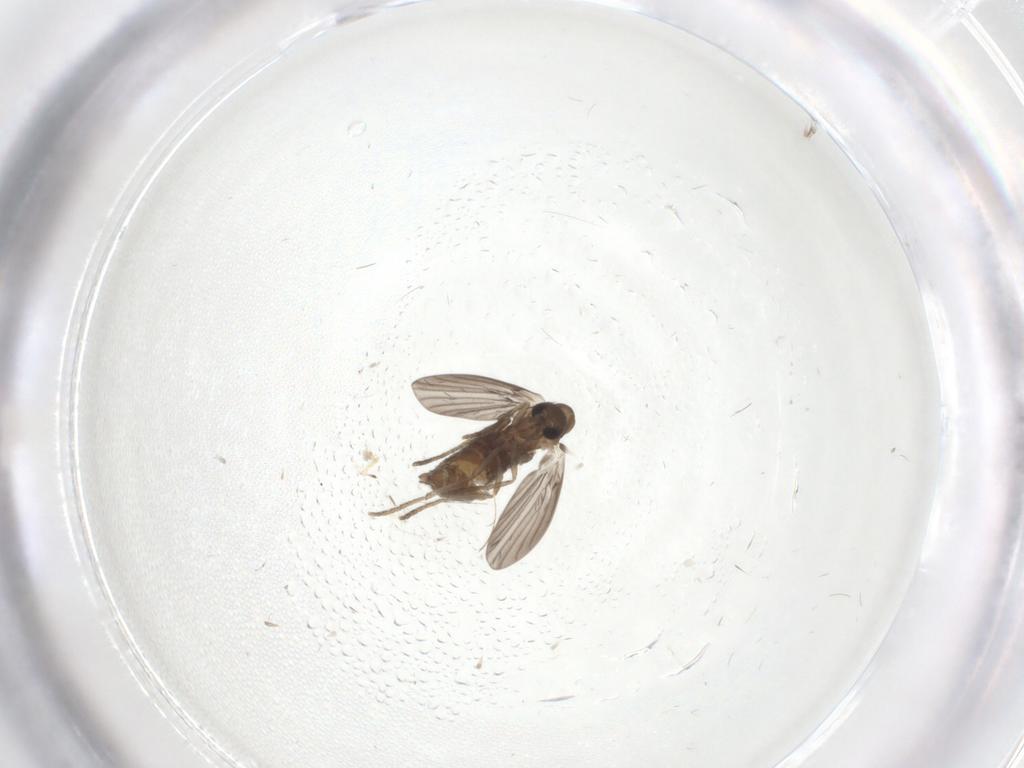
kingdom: Animalia
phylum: Arthropoda
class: Insecta
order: Diptera
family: Psychodidae
